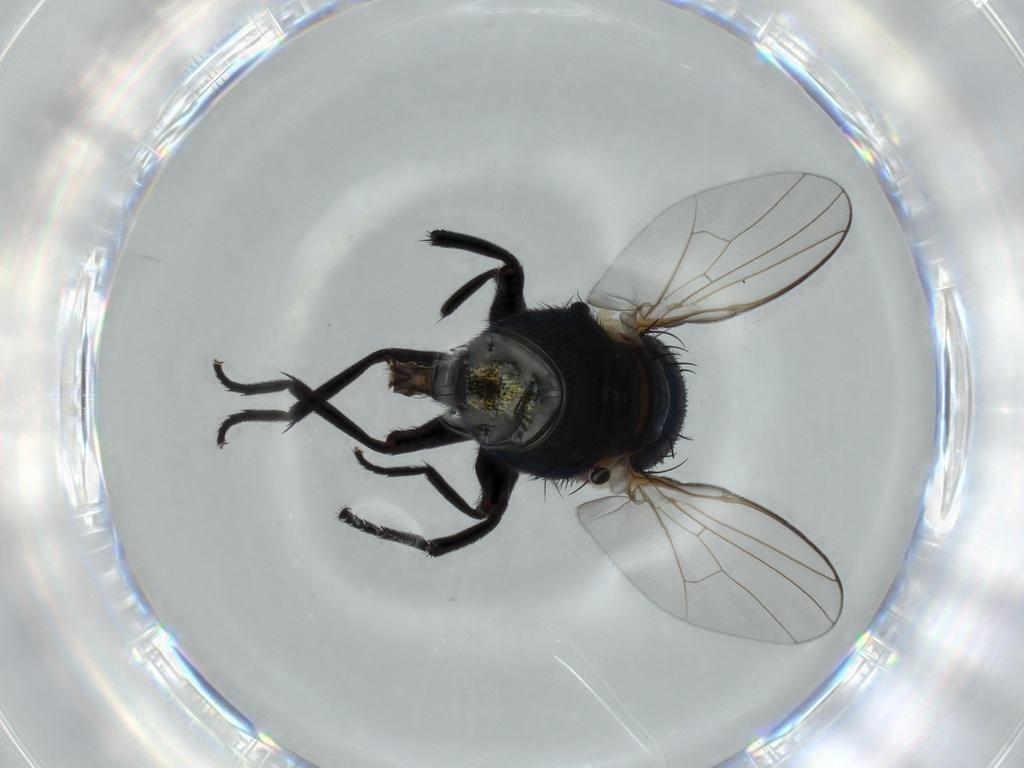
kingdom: Animalia
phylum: Arthropoda
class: Insecta
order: Diptera
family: Agromyzidae
